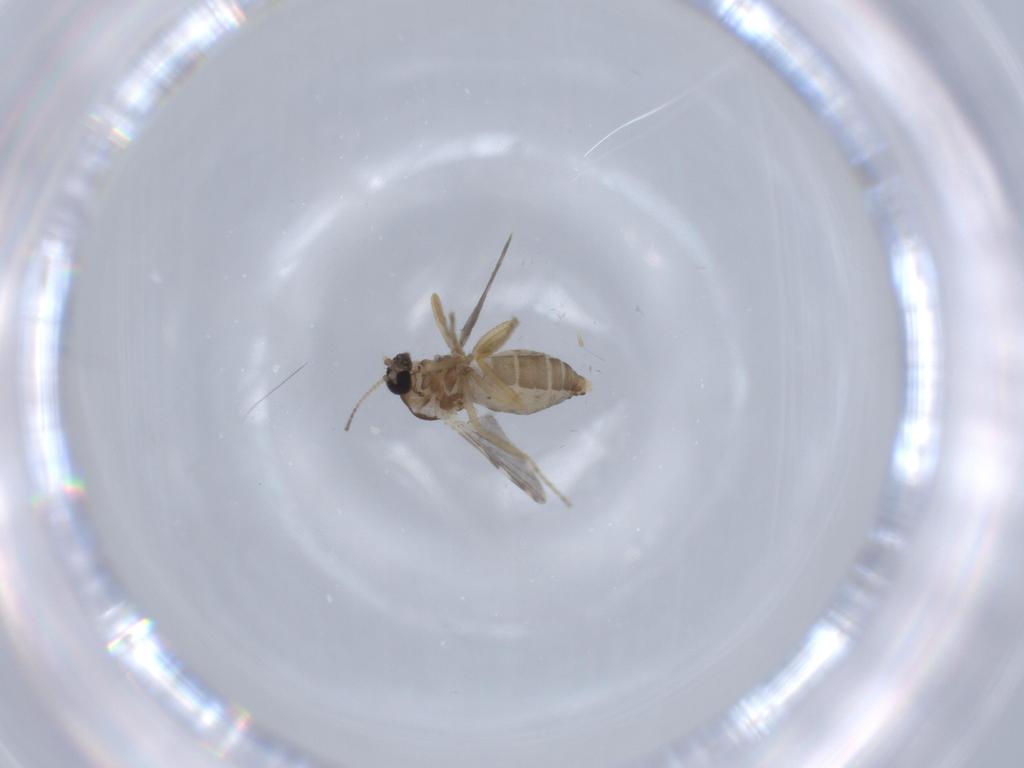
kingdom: Animalia
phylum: Arthropoda
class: Insecta
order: Diptera
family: Ceratopogonidae
